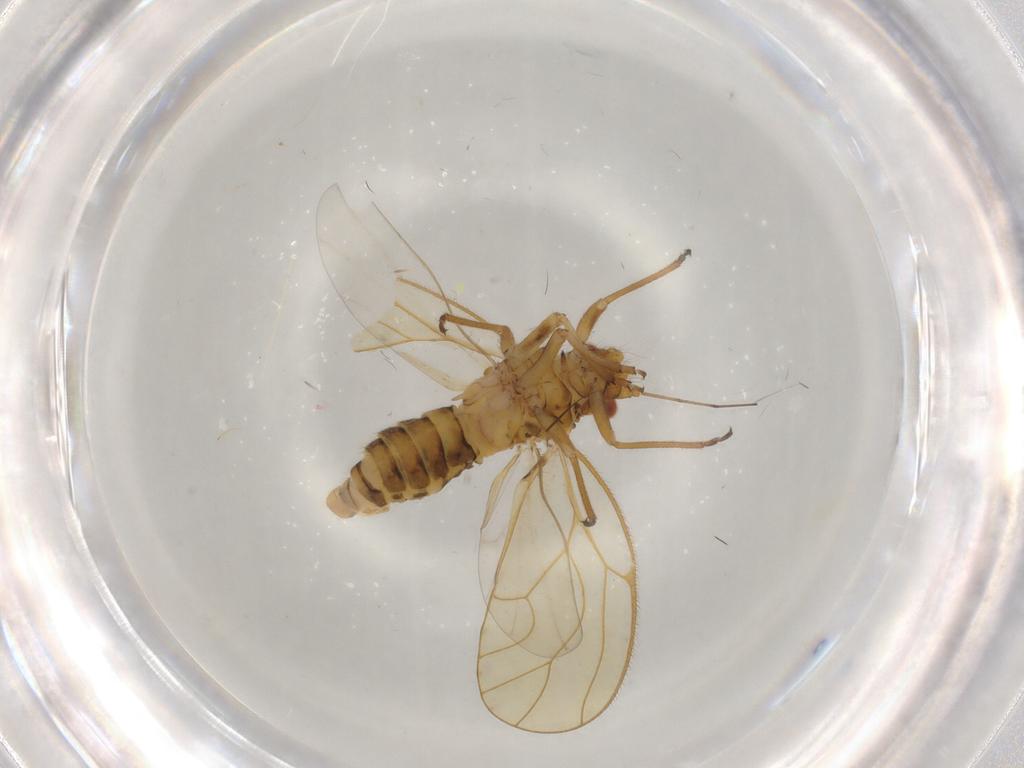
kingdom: Animalia
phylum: Arthropoda
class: Insecta
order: Hemiptera
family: Psyllidae
